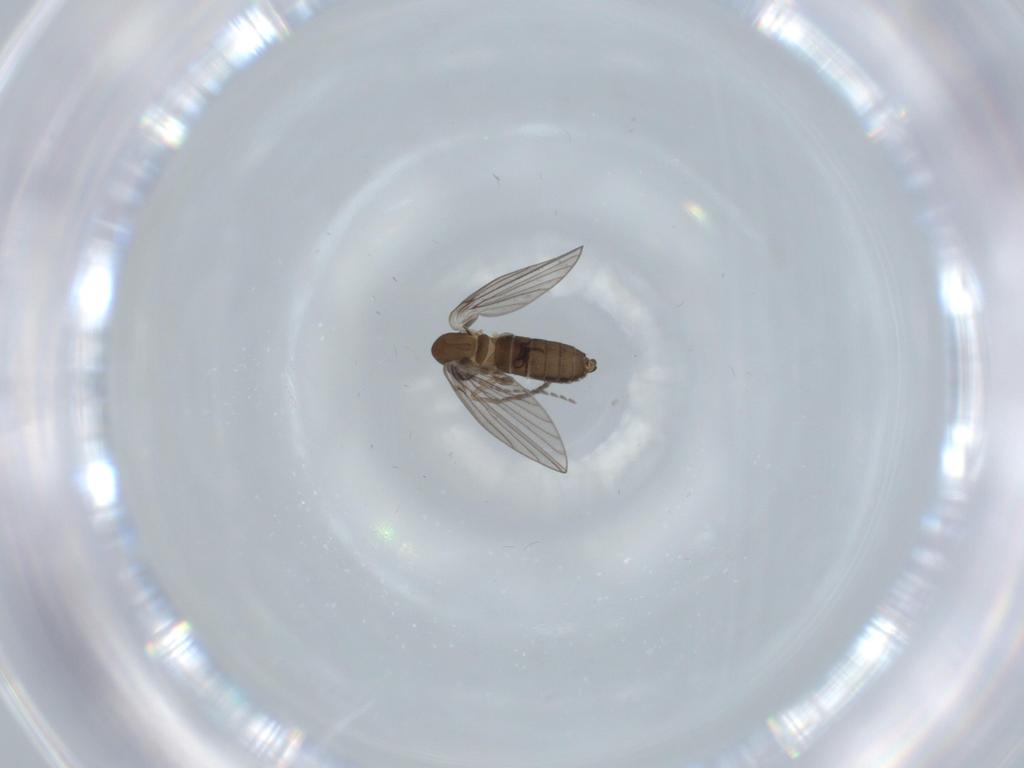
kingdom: Animalia
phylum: Arthropoda
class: Insecta
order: Diptera
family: Psychodidae
